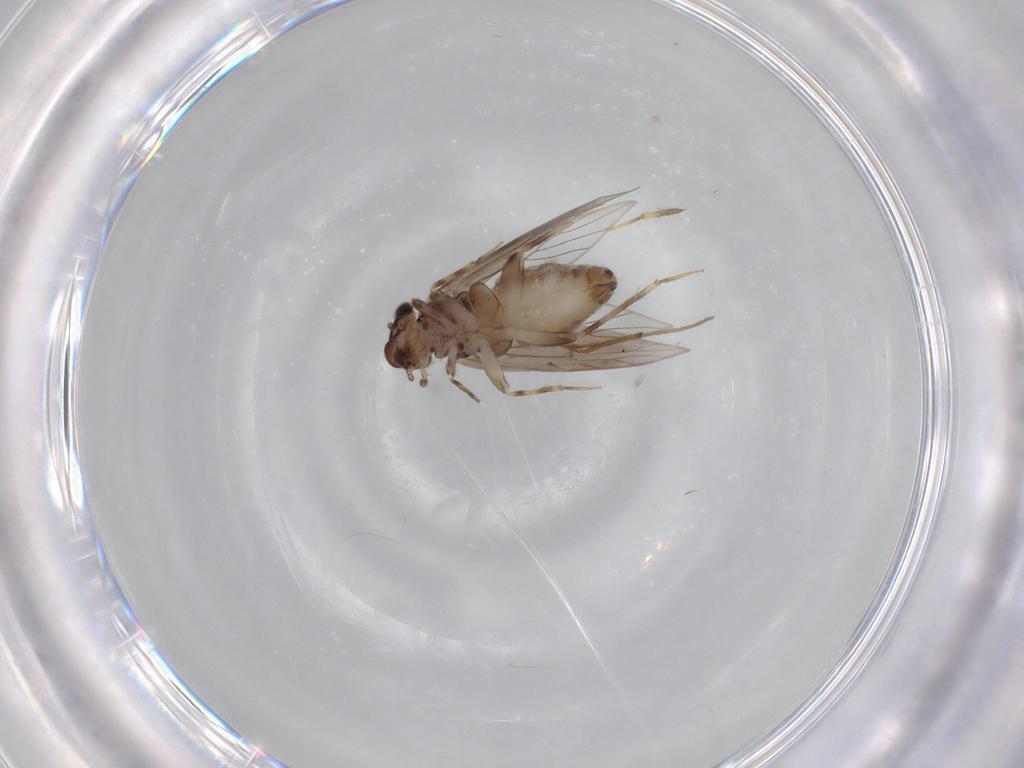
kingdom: Animalia
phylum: Arthropoda
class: Insecta
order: Psocodea
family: Lepidopsocidae
